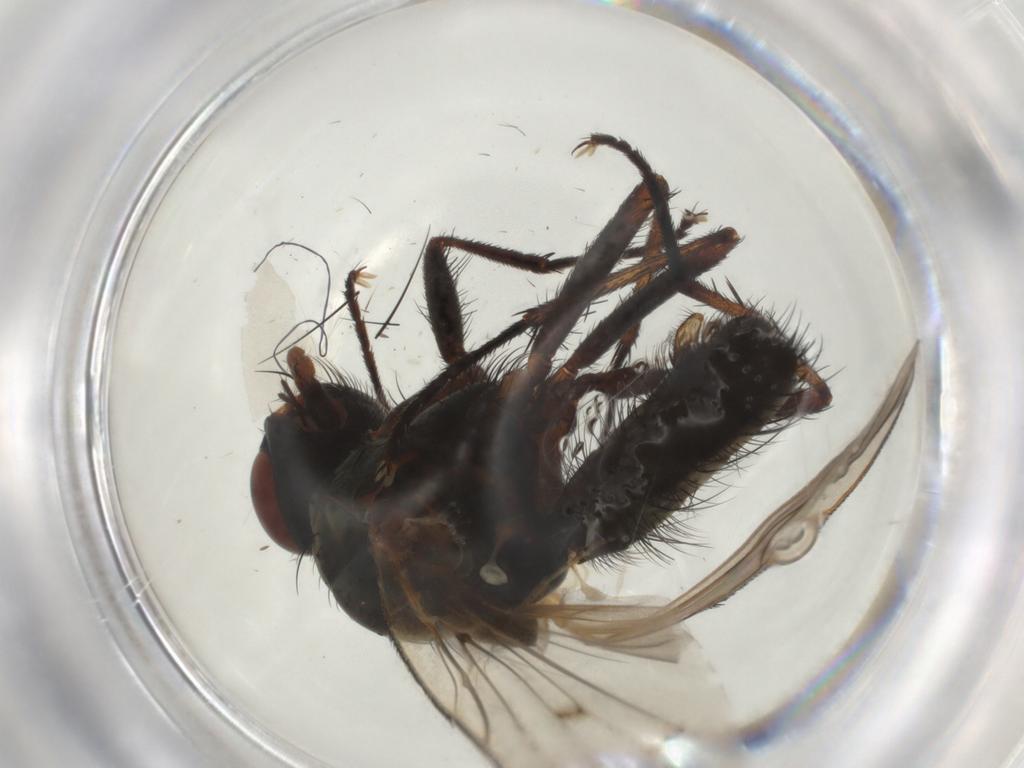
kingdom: Animalia
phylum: Arthropoda
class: Insecta
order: Diptera
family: Anthomyiidae
